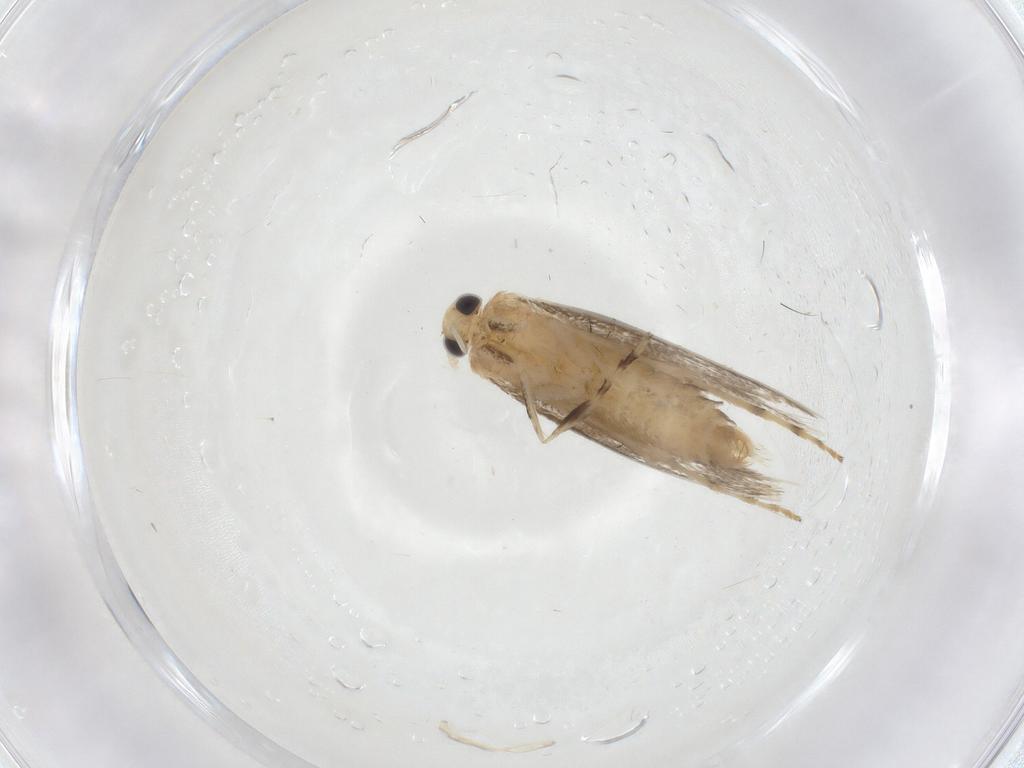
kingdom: Animalia
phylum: Arthropoda
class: Insecta
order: Lepidoptera
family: Gracillariidae
